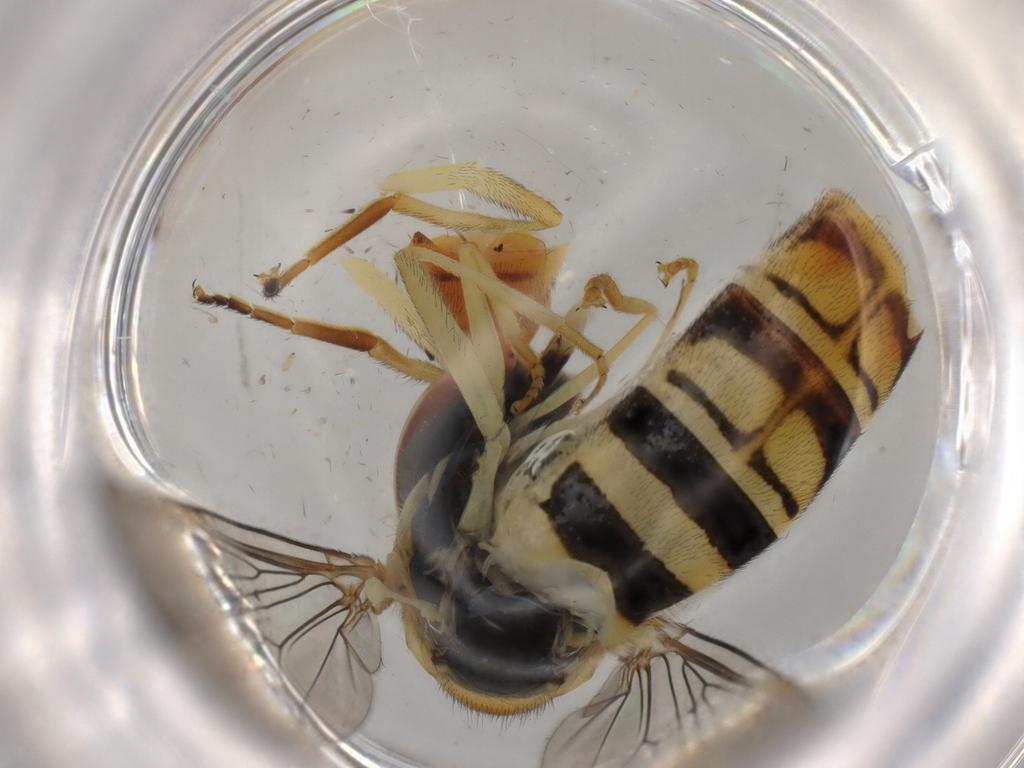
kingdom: Animalia
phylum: Arthropoda
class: Insecta
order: Diptera
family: Syrphidae
